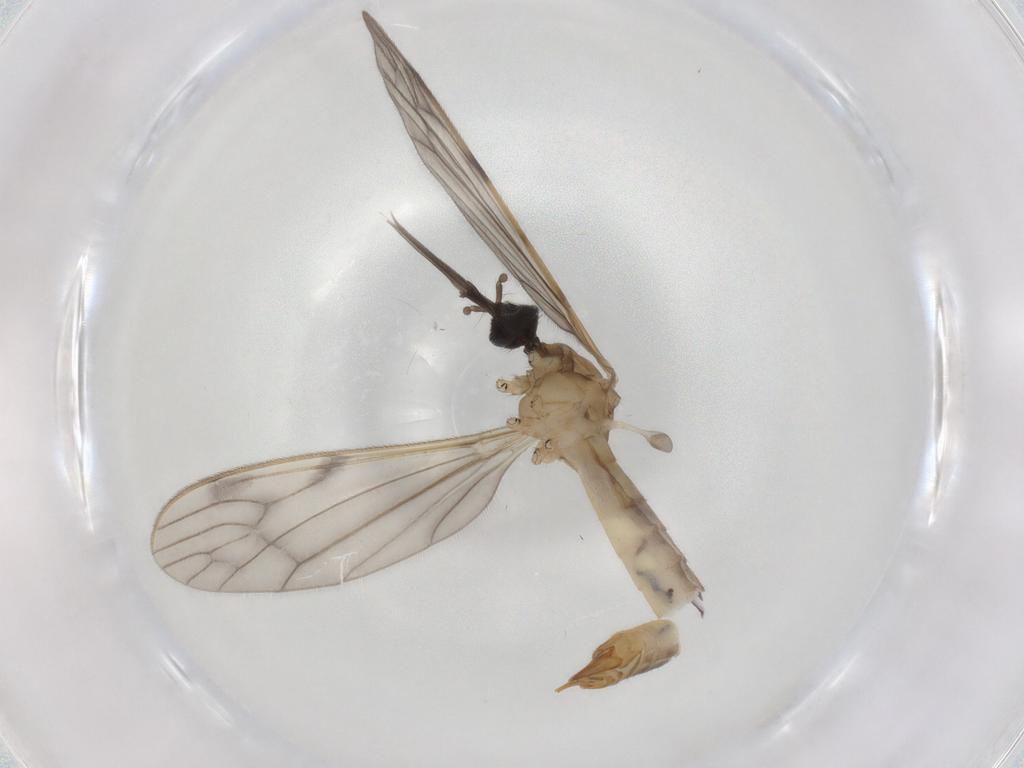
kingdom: Animalia
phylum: Arthropoda
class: Insecta
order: Diptera
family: Limoniidae
